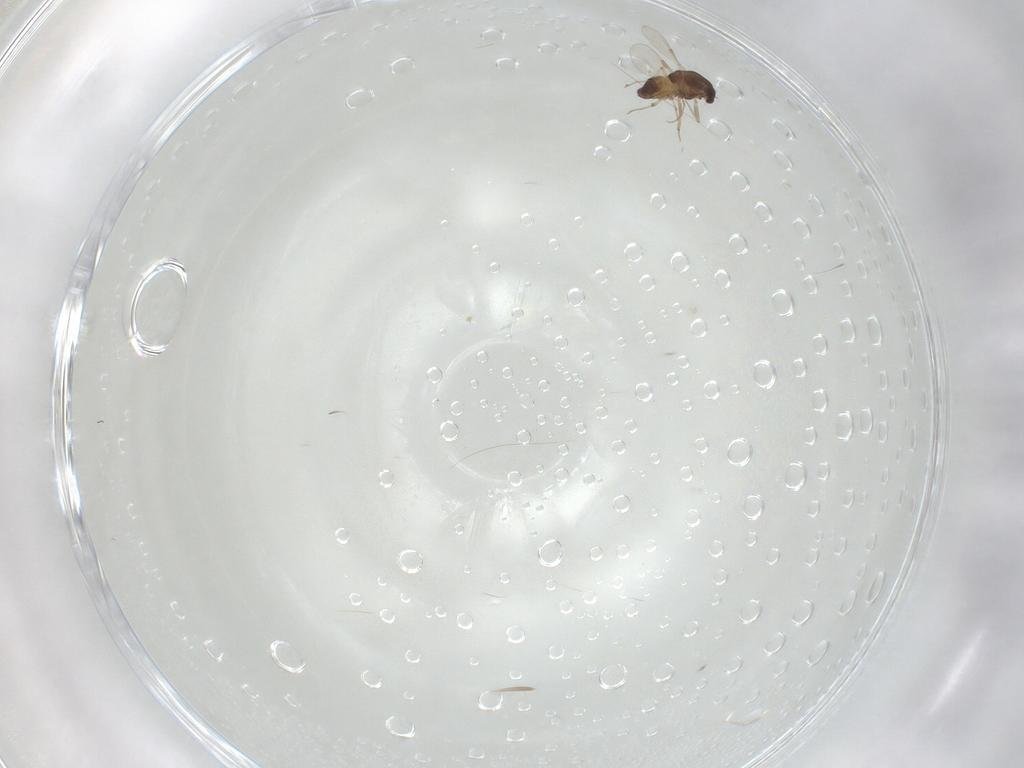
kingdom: Animalia
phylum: Arthropoda
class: Insecta
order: Diptera
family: Chironomidae
